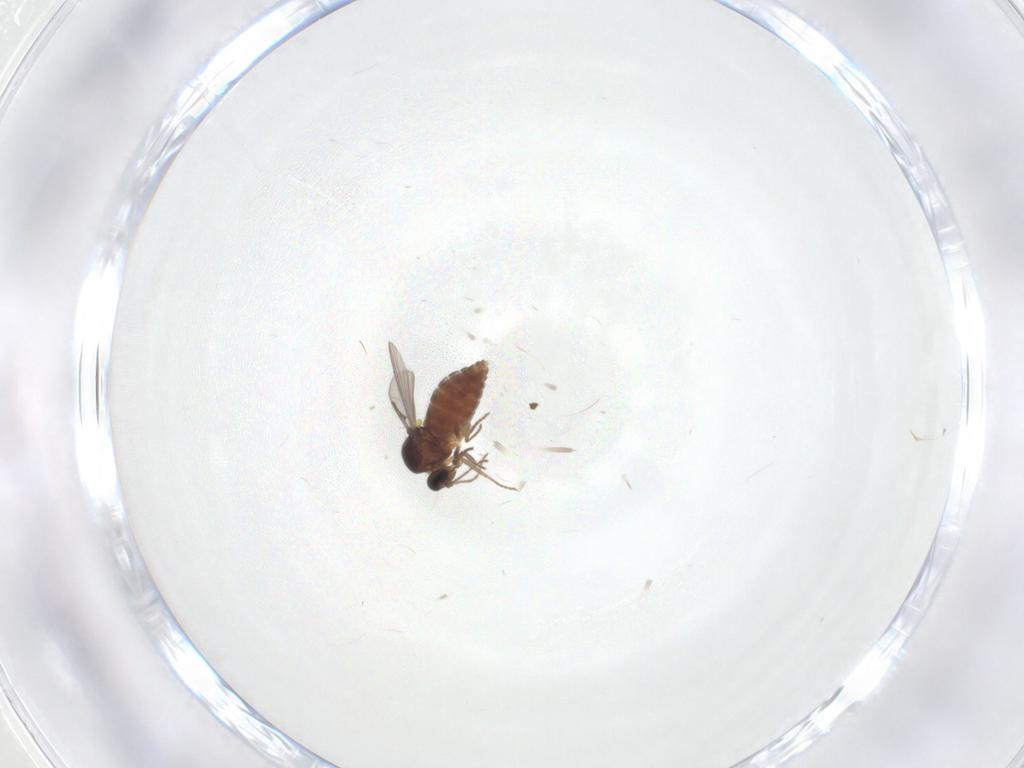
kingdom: Animalia
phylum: Arthropoda
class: Insecta
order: Diptera
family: Ceratopogonidae
